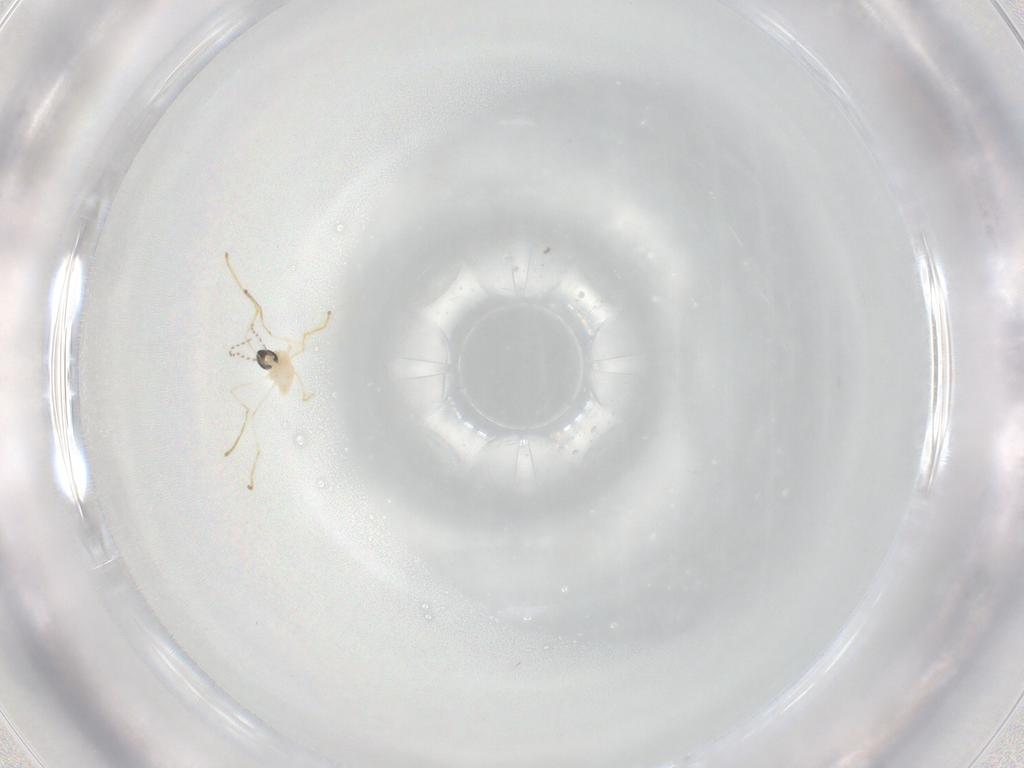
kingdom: Animalia
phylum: Arthropoda
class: Insecta
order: Diptera
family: Cecidomyiidae
